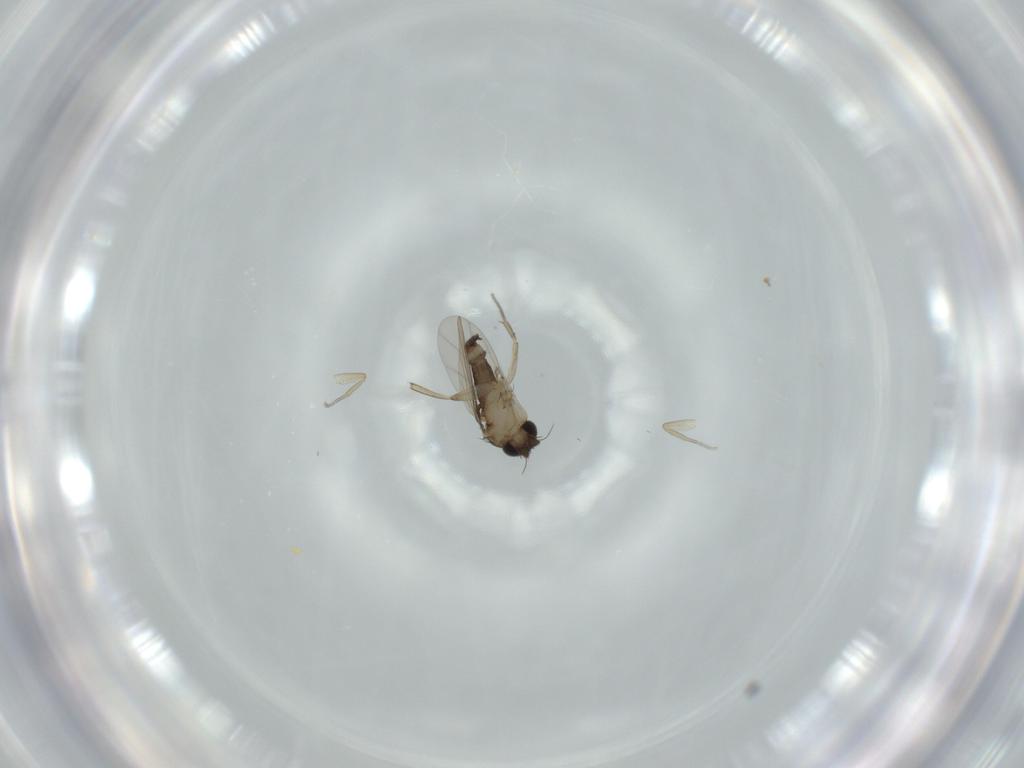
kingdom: Animalia
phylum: Arthropoda
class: Insecta
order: Diptera
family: Phoridae
